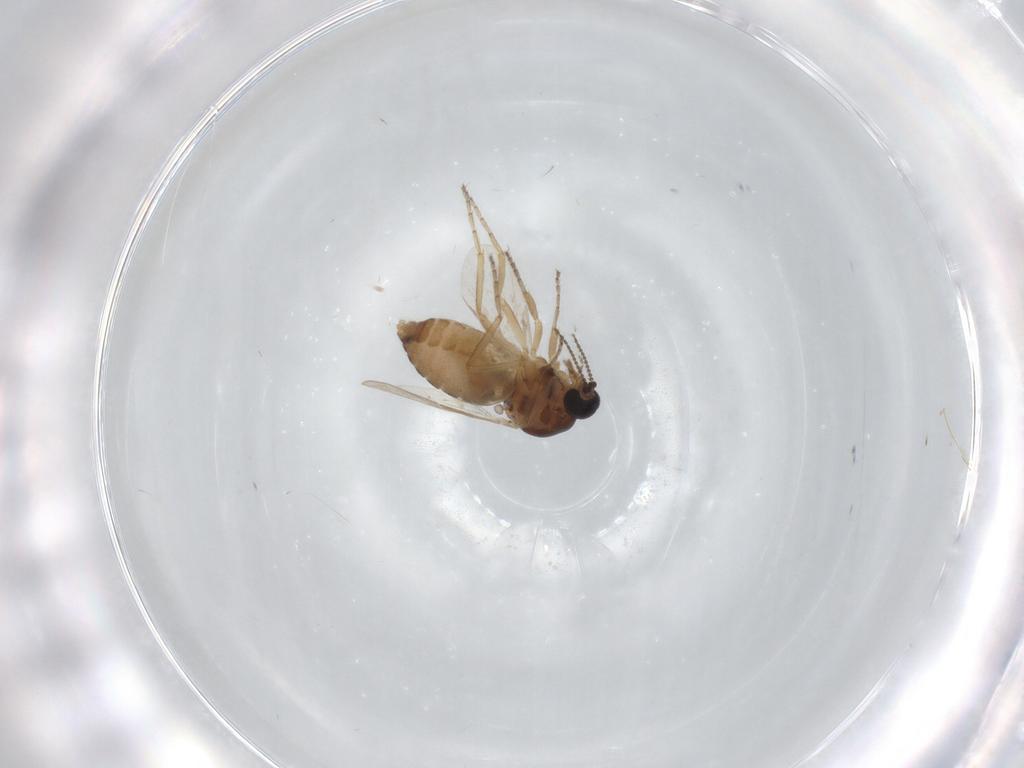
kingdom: Animalia
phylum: Arthropoda
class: Insecta
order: Diptera
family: Ceratopogonidae
